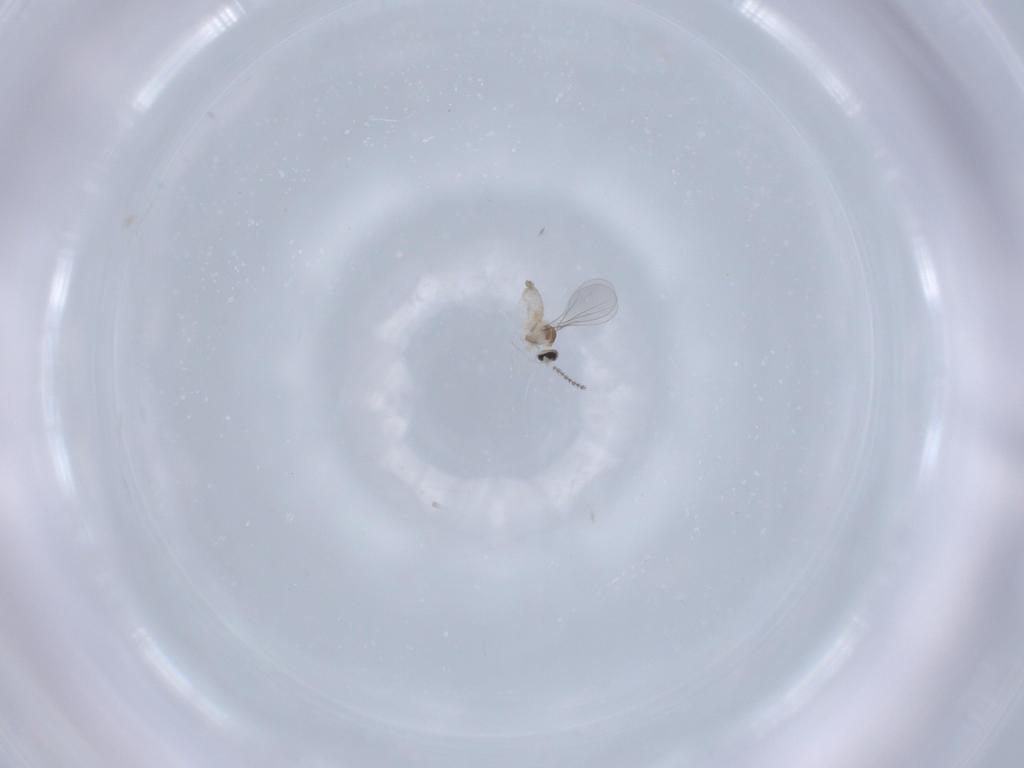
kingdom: Animalia
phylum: Arthropoda
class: Insecta
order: Diptera
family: Cecidomyiidae
